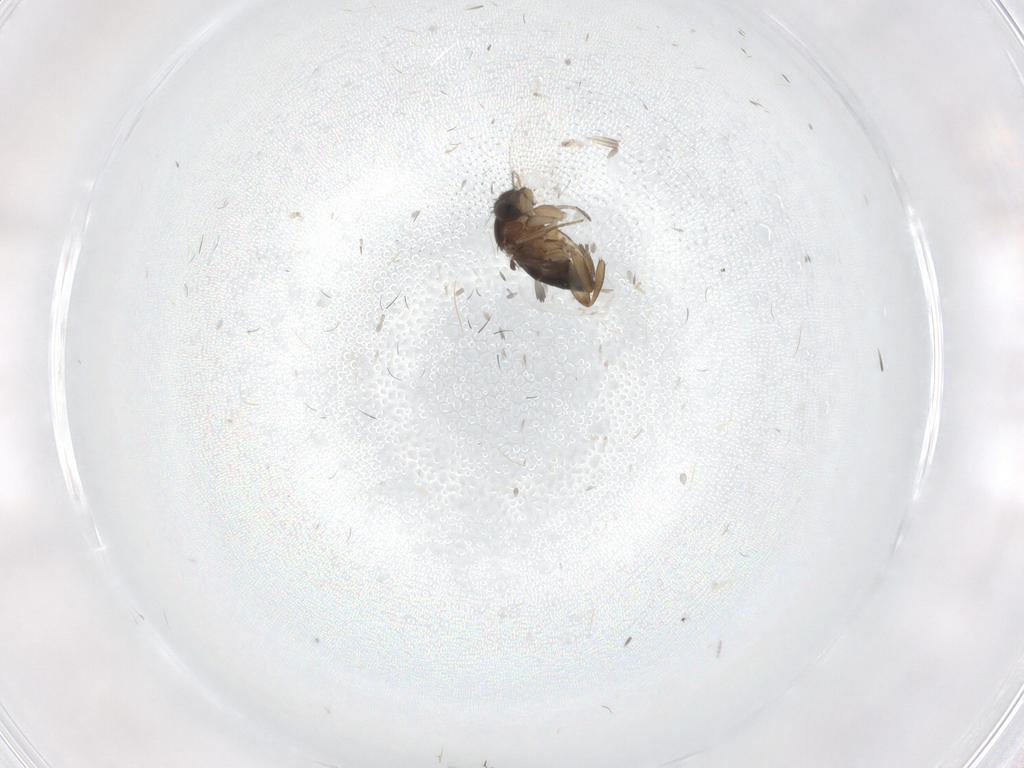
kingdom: Animalia
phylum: Arthropoda
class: Insecta
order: Diptera
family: Phoridae
